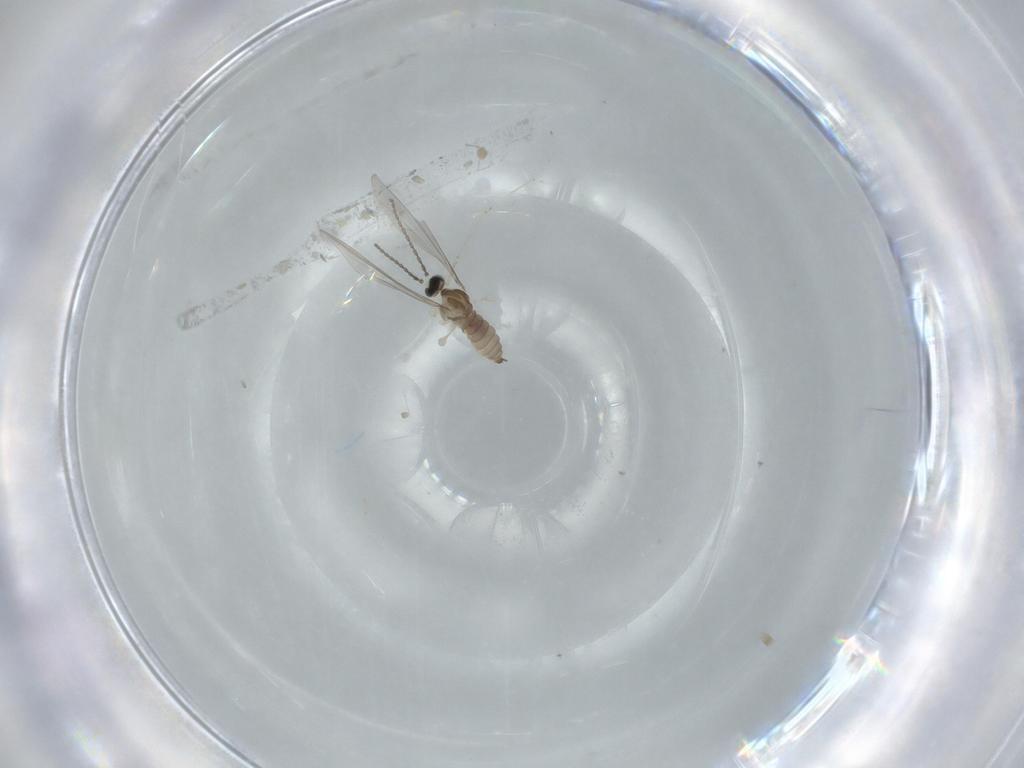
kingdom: Animalia
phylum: Arthropoda
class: Insecta
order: Diptera
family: Cecidomyiidae
